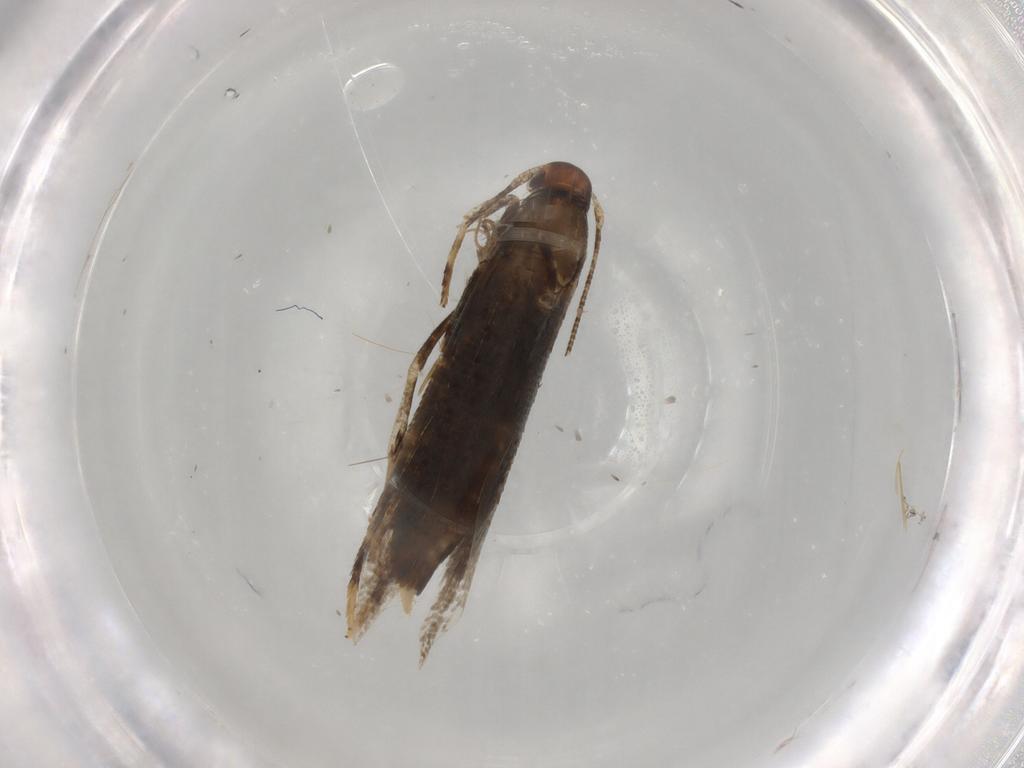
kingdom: Animalia
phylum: Arthropoda
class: Insecta
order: Lepidoptera
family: Cosmopterigidae
